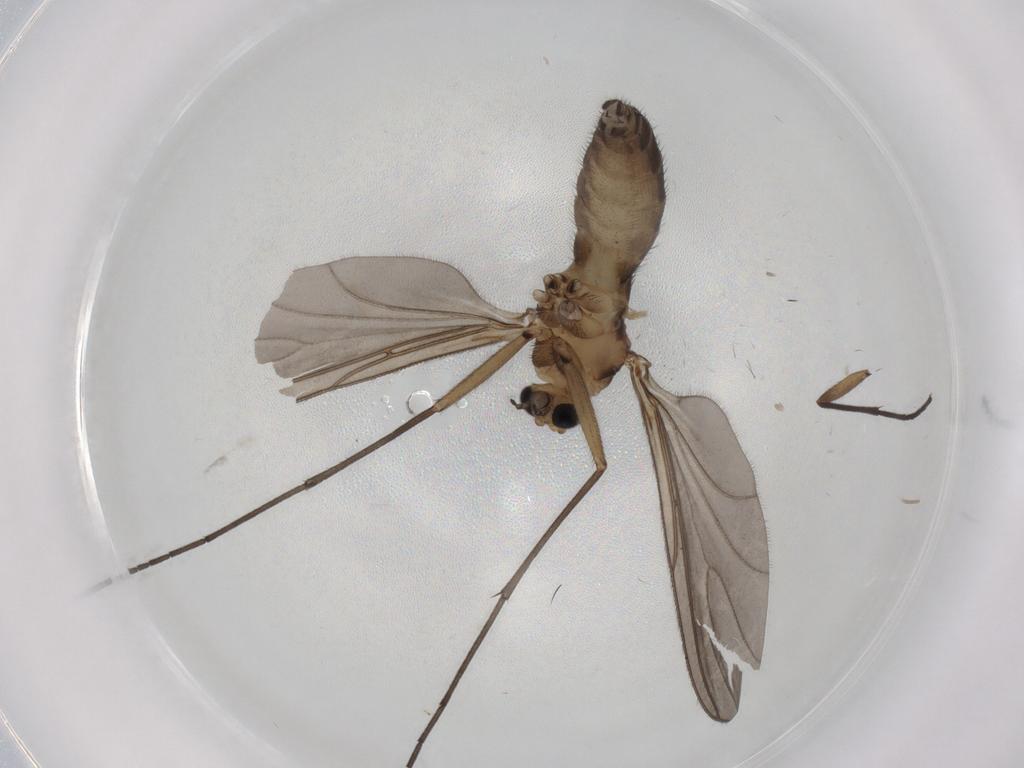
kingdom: Animalia
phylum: Arthropoda
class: Insecta
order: Diptera
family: Sciaridae
